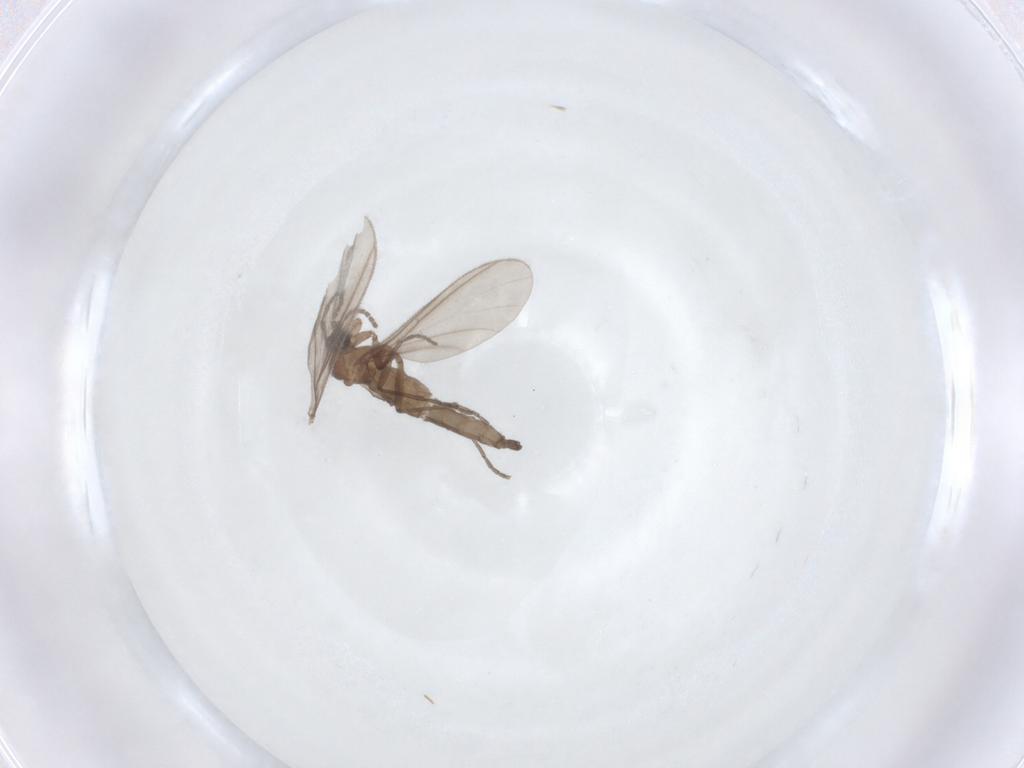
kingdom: Animalia
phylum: Arthropoda
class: Insecta
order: Diptera
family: Sciaridae
